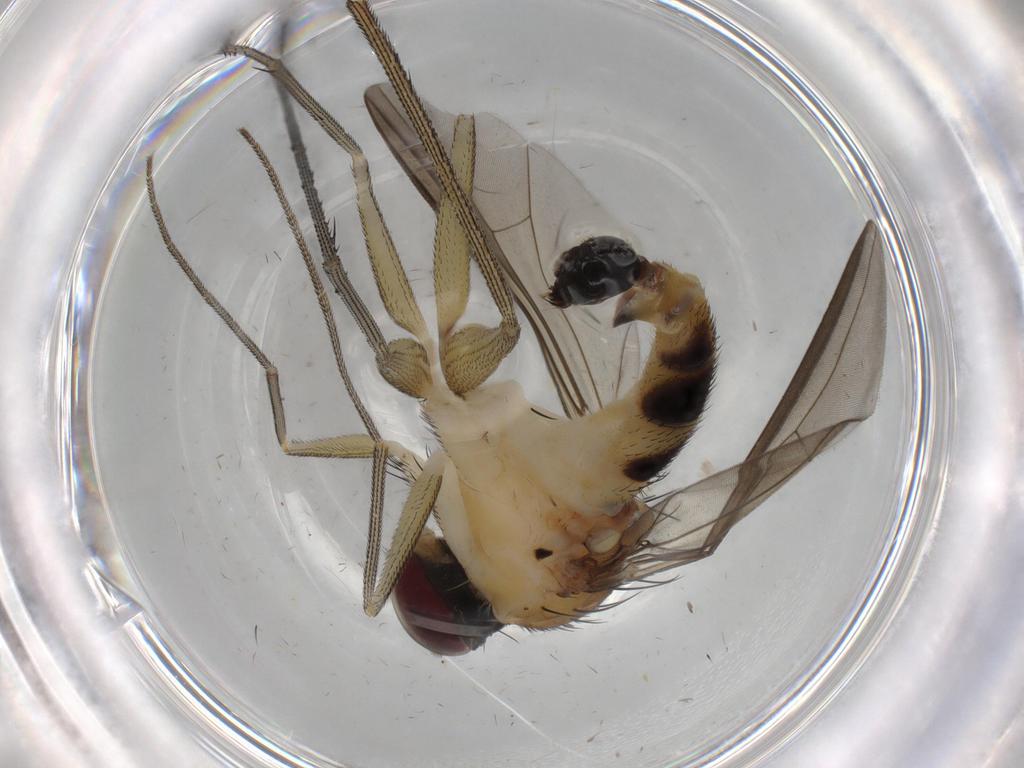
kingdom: Animalia
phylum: Arthropoda
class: Insecta
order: Diptera
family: Dolichopodidae
